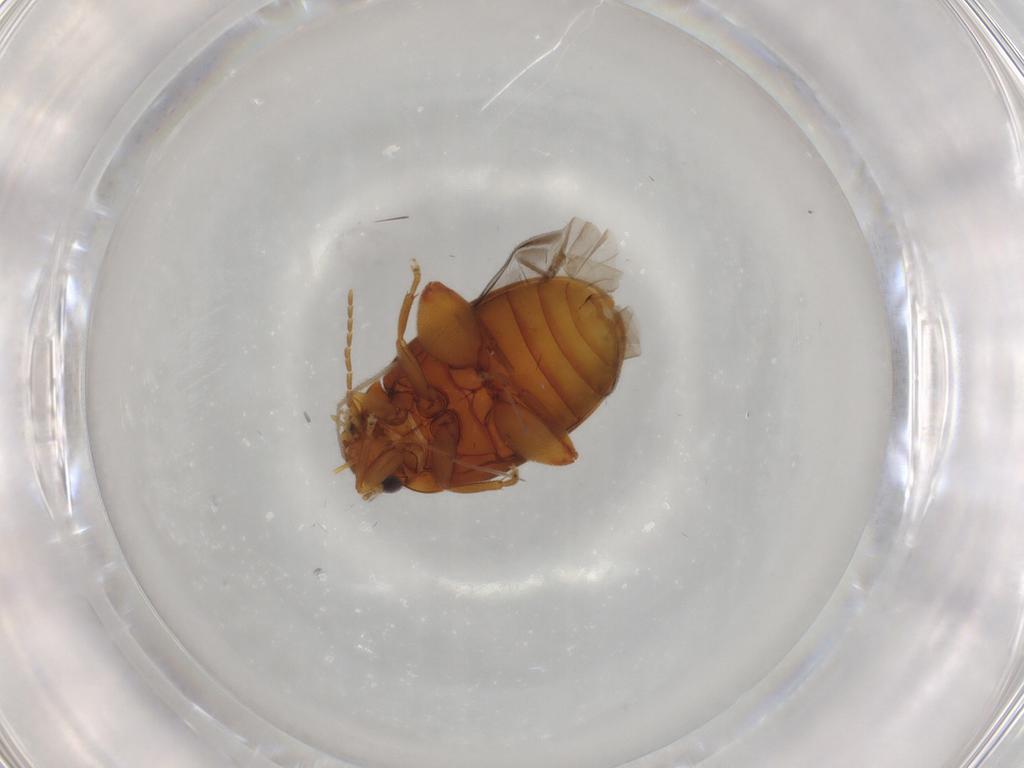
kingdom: Animalia
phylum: Arthropoda
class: Insecta
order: Coleoptera
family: Scirtidae
